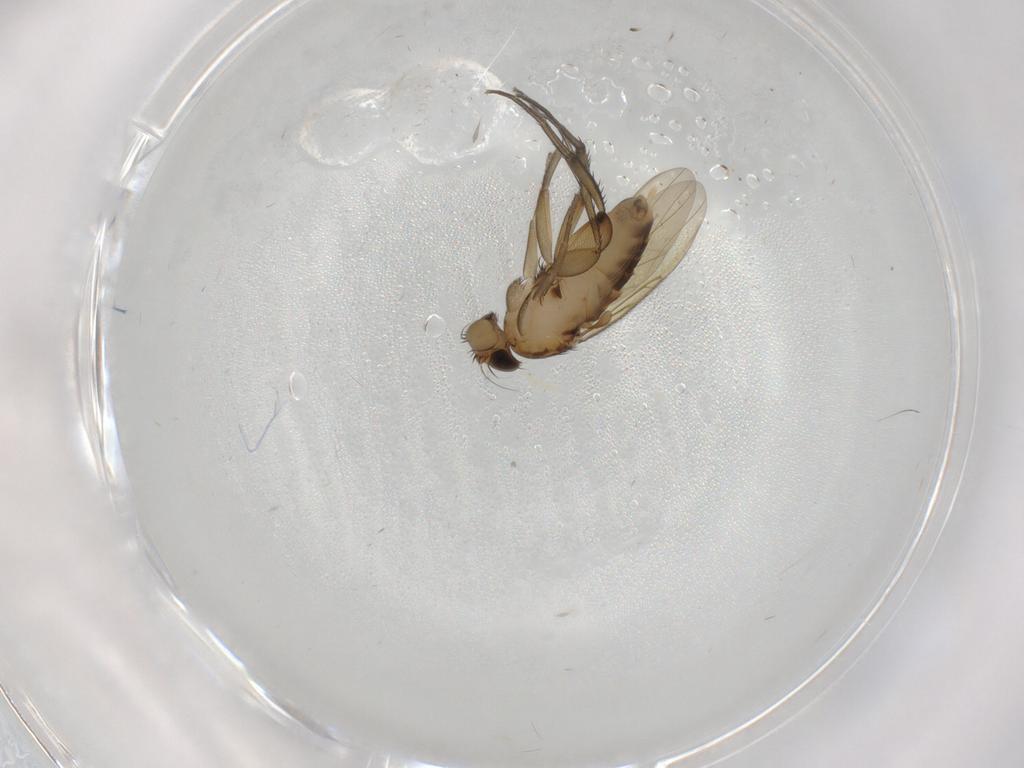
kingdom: Animalia
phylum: Arthropoda
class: Insecta
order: Diptera
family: Phoridae
